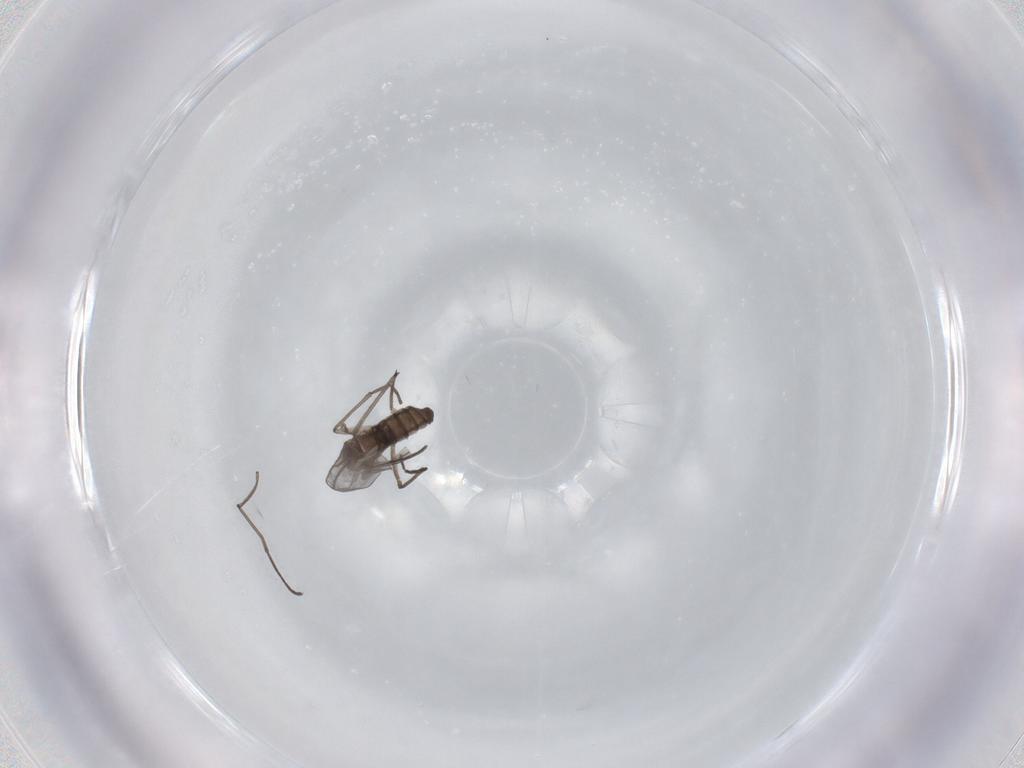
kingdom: Animalia
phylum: Arthropoda
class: Insecta
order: Diptera
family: Sciaridae
